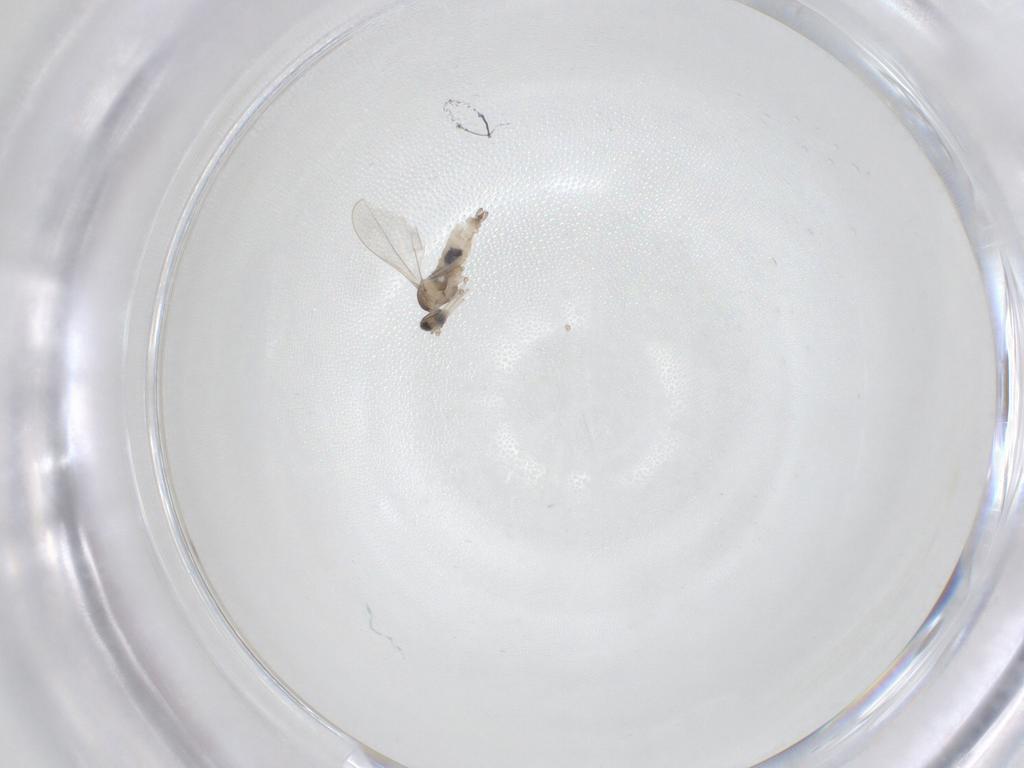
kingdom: Animalia
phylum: Arthropoda
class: Insecta
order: Diptera
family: Cecidomyiidae
